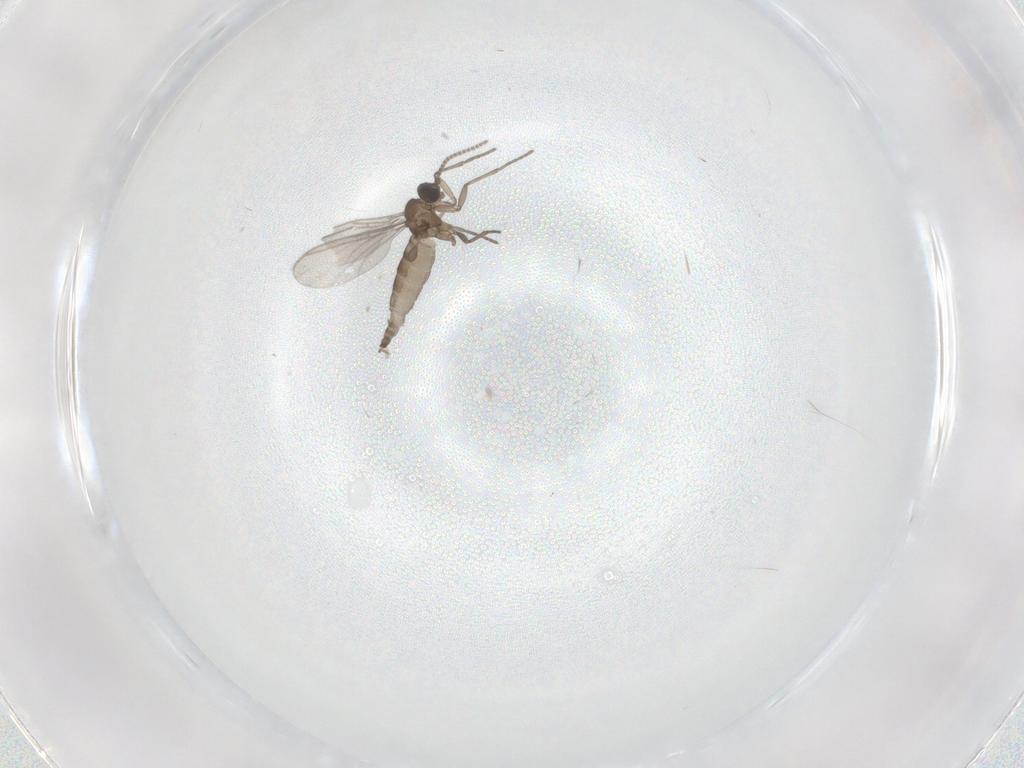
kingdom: Animalia
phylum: Arthropoda
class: Insecta
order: Diptera
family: Sciaridae
